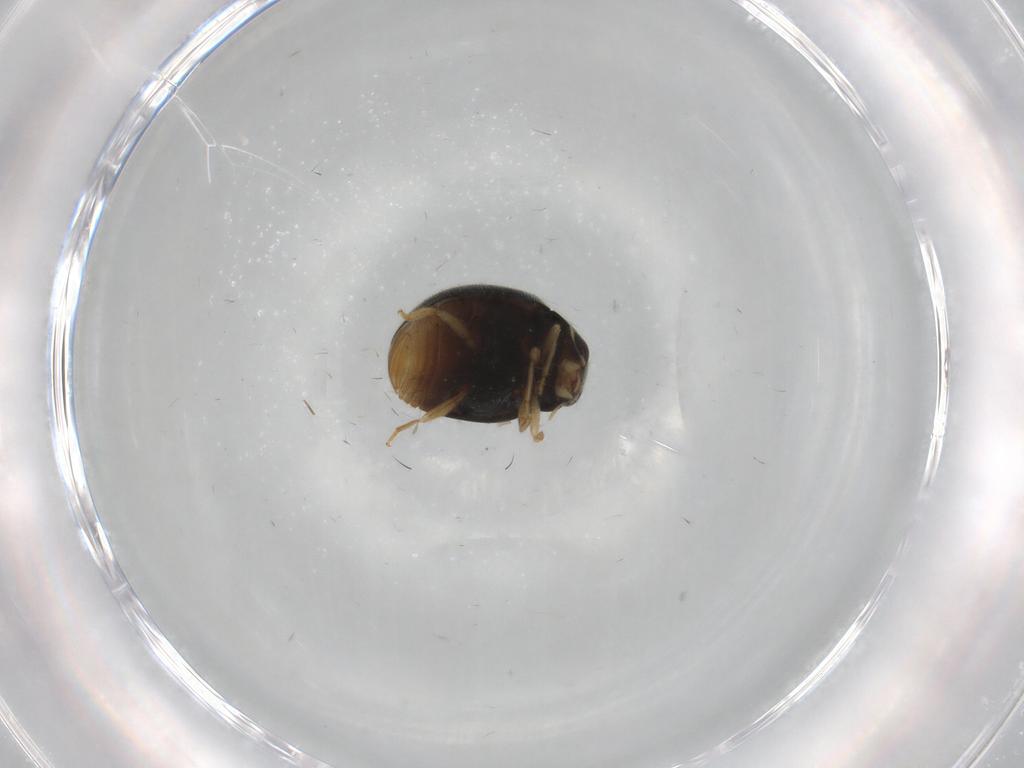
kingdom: Animalia
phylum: Arthropoda
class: Insecta
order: Coleoptera
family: Coccinellidae
